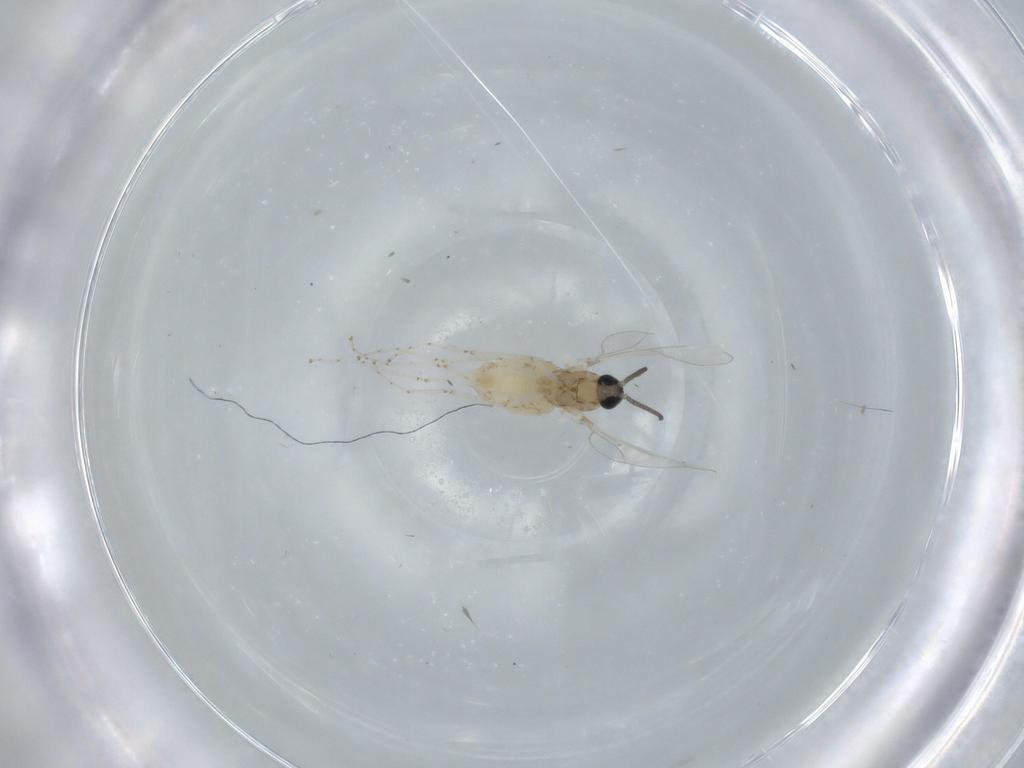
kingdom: Animalia
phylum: Arthropoda
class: Insecta
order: Diptera
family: Cecidomyiidae
